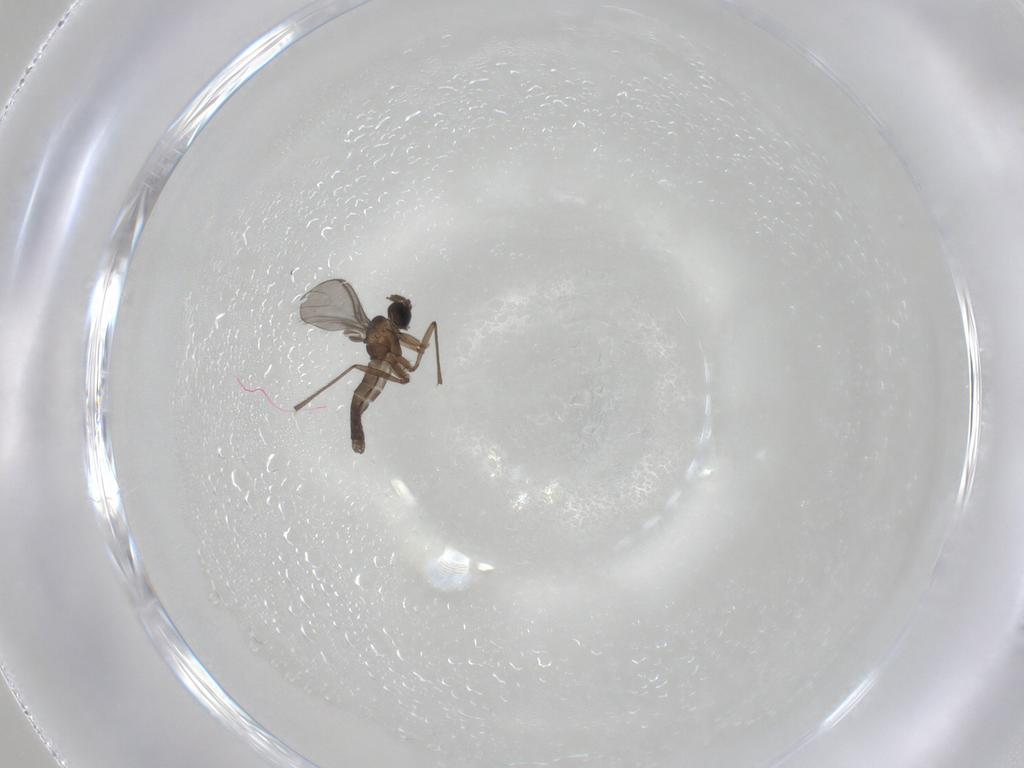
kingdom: Animalia
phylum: Arthropoda
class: Insecta
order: Diptera
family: Sciaridae
